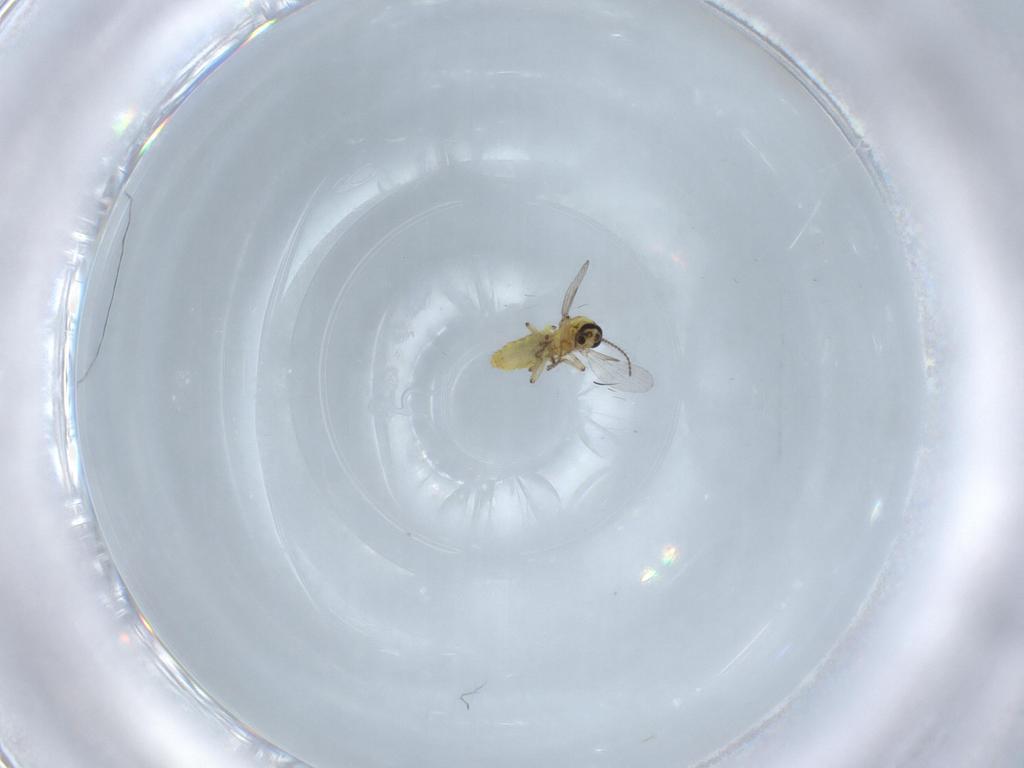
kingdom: Animalia
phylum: Arthropoda
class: Insecta
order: Diptera
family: Ceratopogonidae
